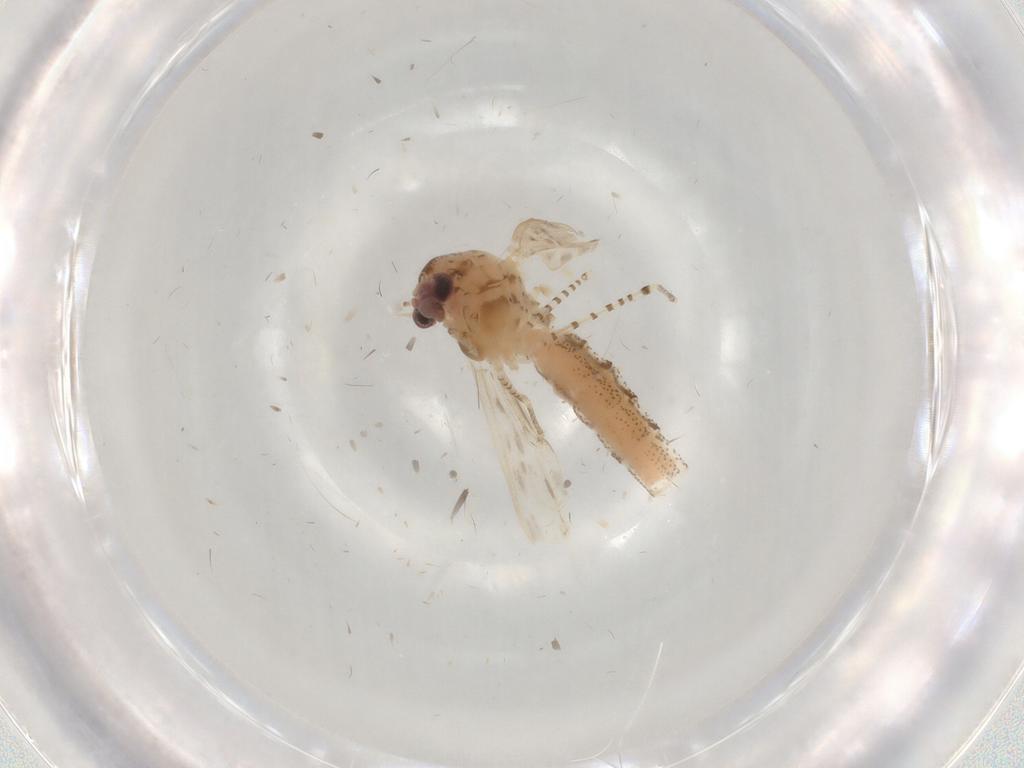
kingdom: Animalia
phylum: Arthropoda
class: Insecta
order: Diptera
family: Chaoboridae
